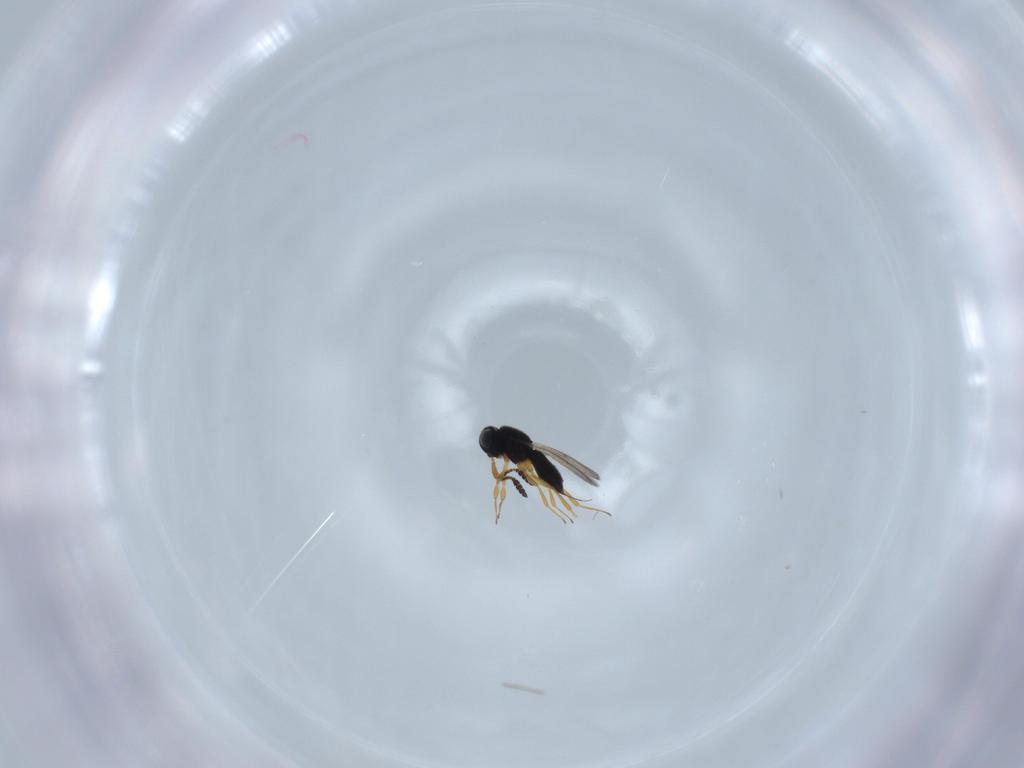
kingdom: Animalia
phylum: Arthropoda
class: Insecta
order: Hymenoptera
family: Scelionidae
